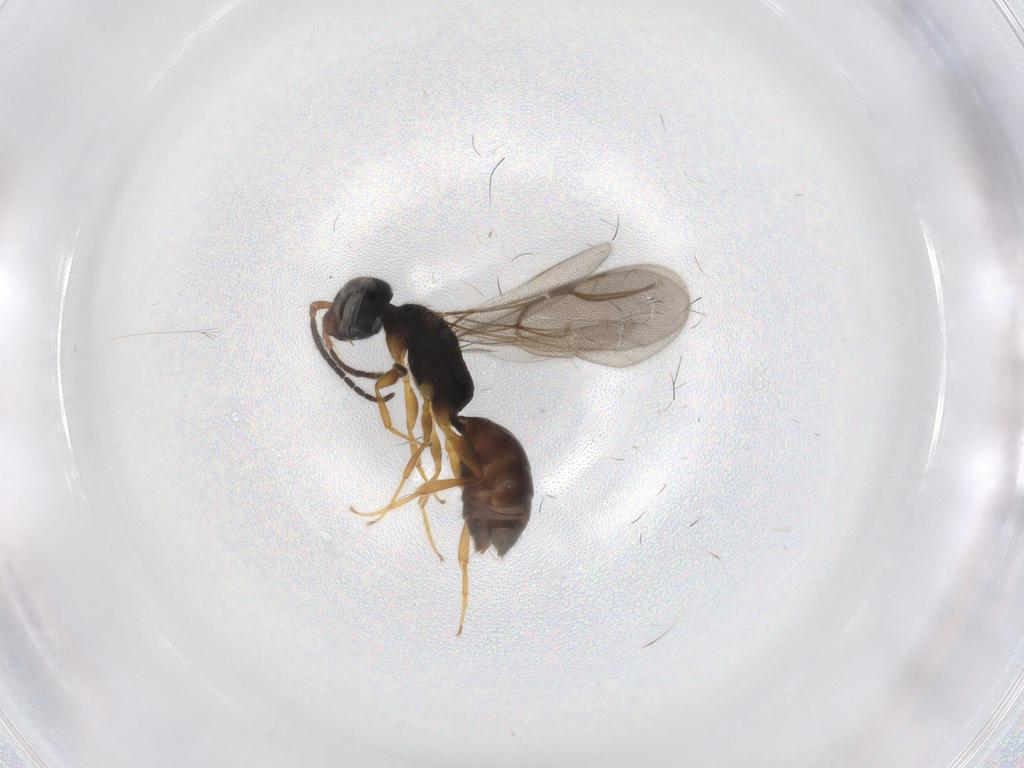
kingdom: Animalia
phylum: Arthropoda
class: Insecta
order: Hymenoptera
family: Bethylidae
